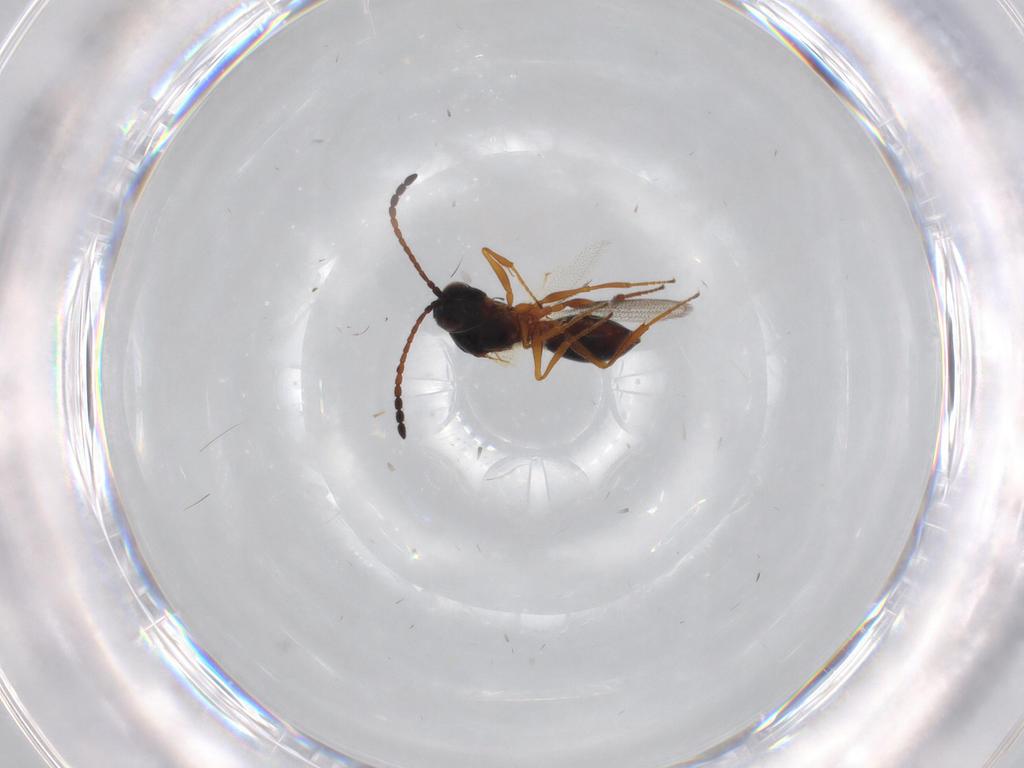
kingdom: Animalia
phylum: Arthropoda
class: Insecta
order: Hymenoptera
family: Figitidae
